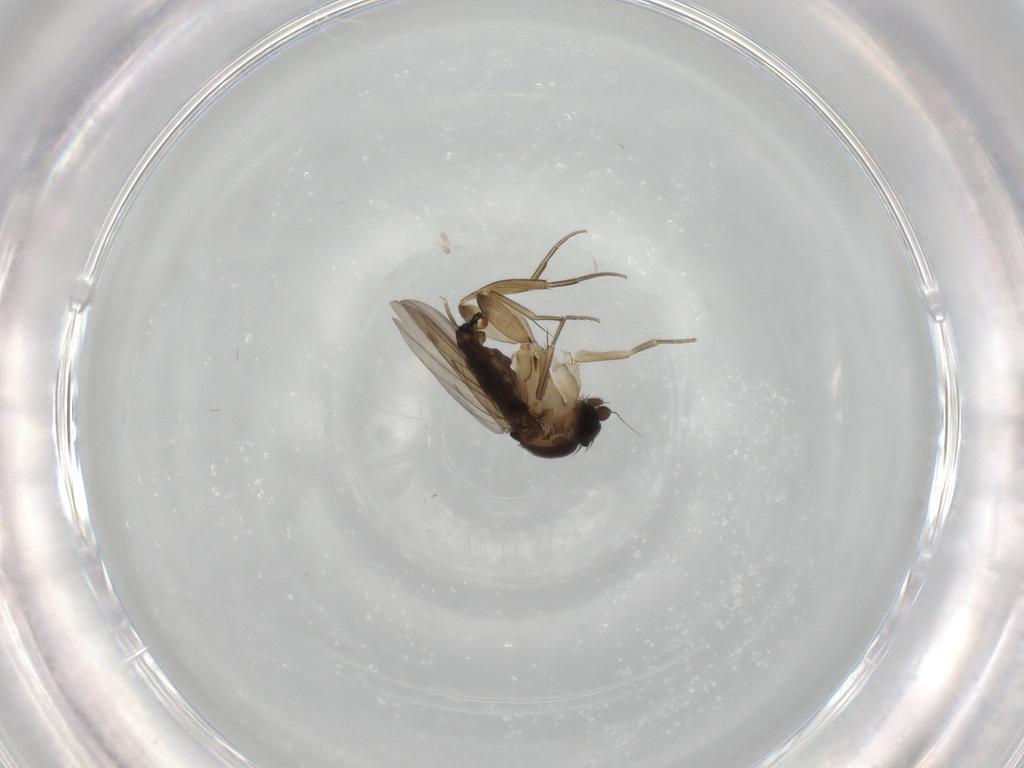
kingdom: Animalia
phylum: Arthropoda
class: Insecta
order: Diptera
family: Phoridae
